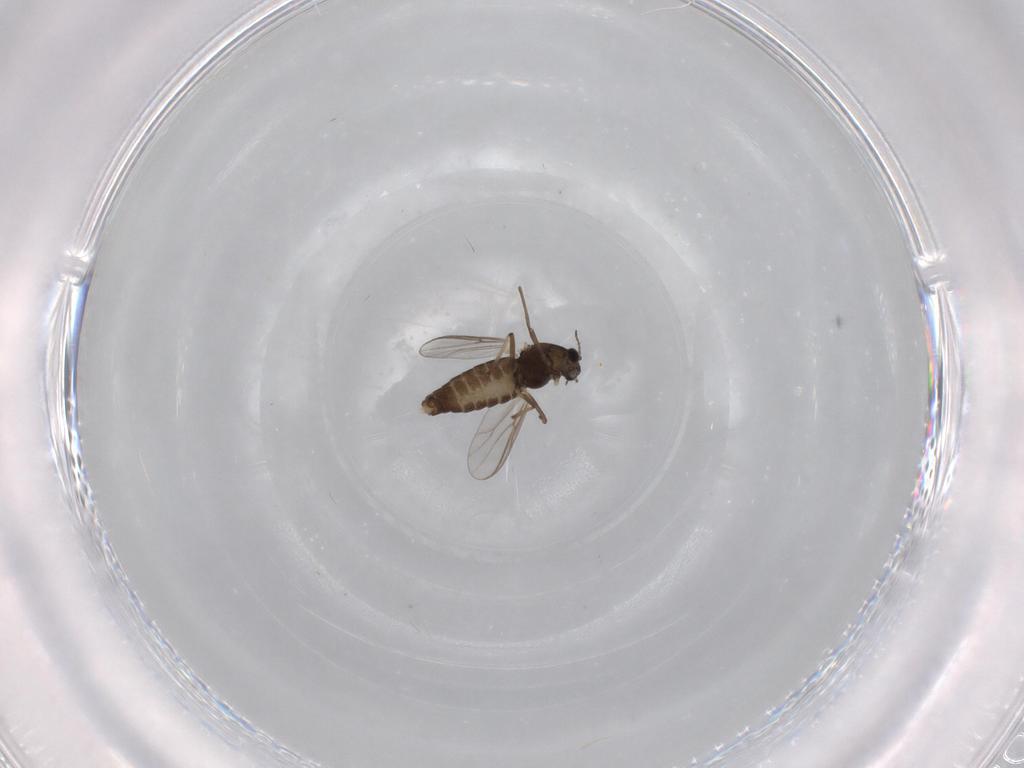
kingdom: Animalia
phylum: Arthropoda
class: Insecta
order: Diptera
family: Chironomidae
